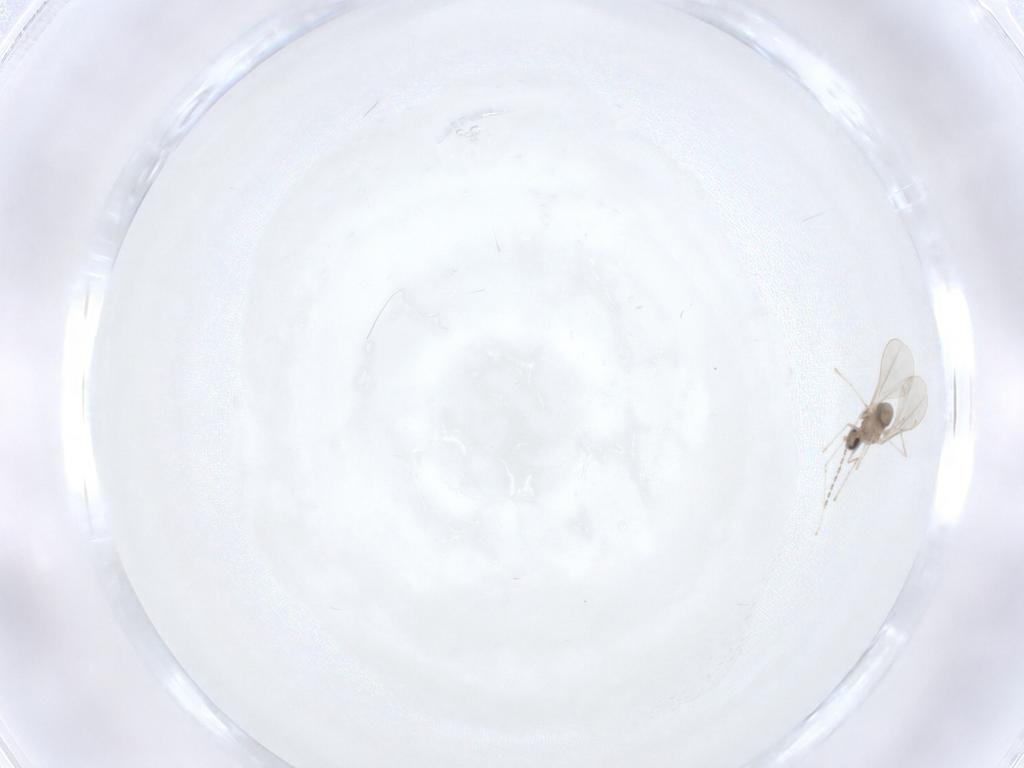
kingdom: Animalia
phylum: Arthropoda
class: Insecta
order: Diptera
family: Cecidomyiidae
